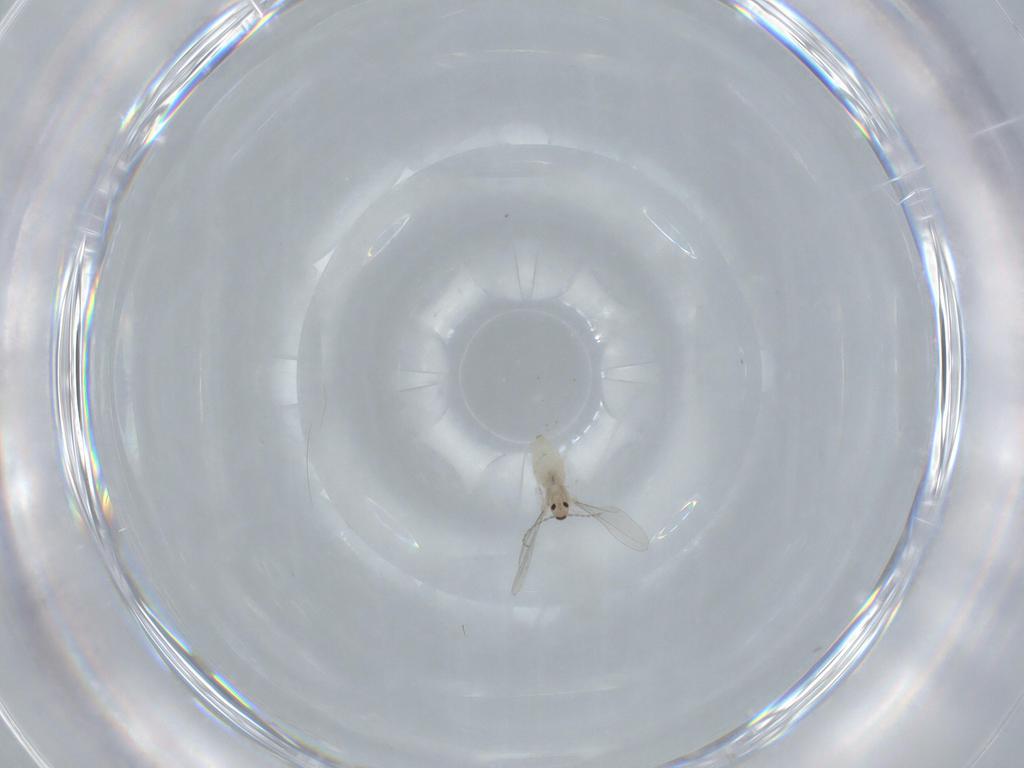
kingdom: Animalia
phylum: Arthropoda
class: Insecta
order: Diptera
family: Cecidomyiidae
